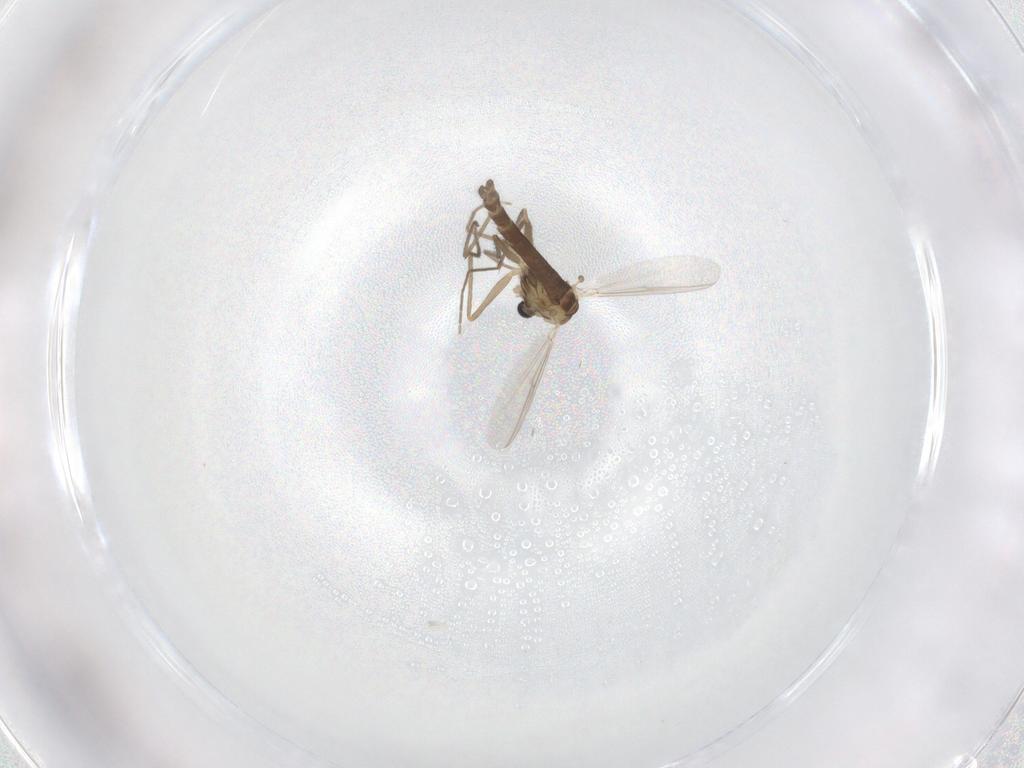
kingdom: Animalia
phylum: Arthropoda
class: Insecta
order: Diptera
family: Chironomidae
